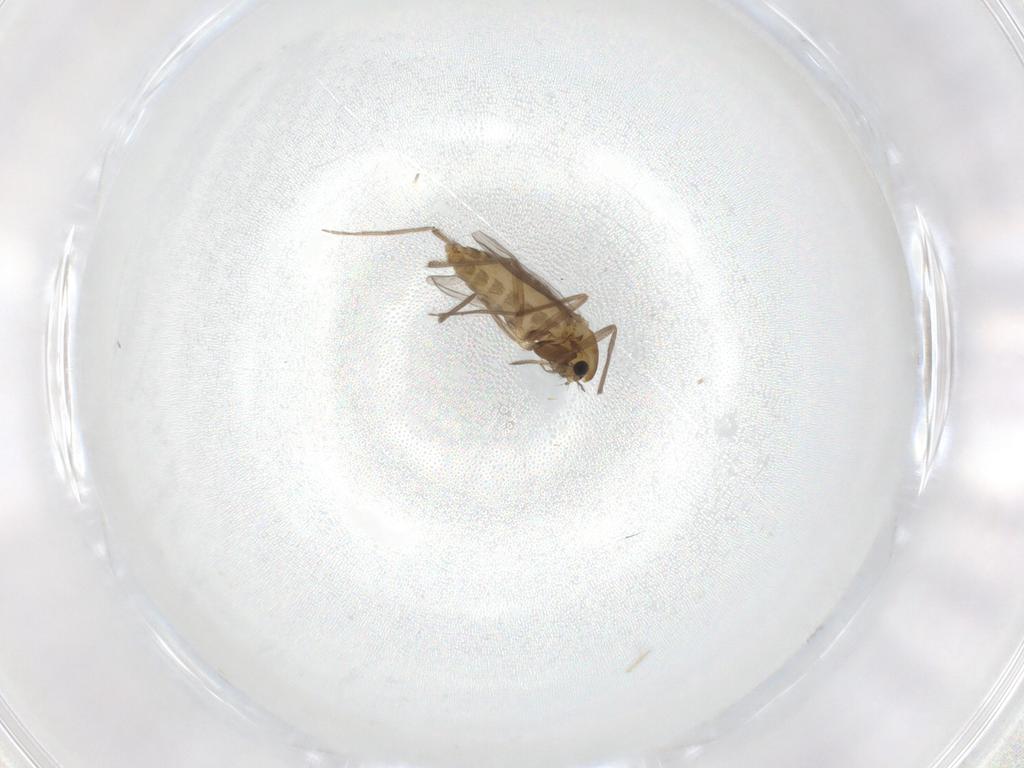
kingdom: Animalia
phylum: Arthropoda
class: Insecta
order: Diptera
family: Chironomidae
